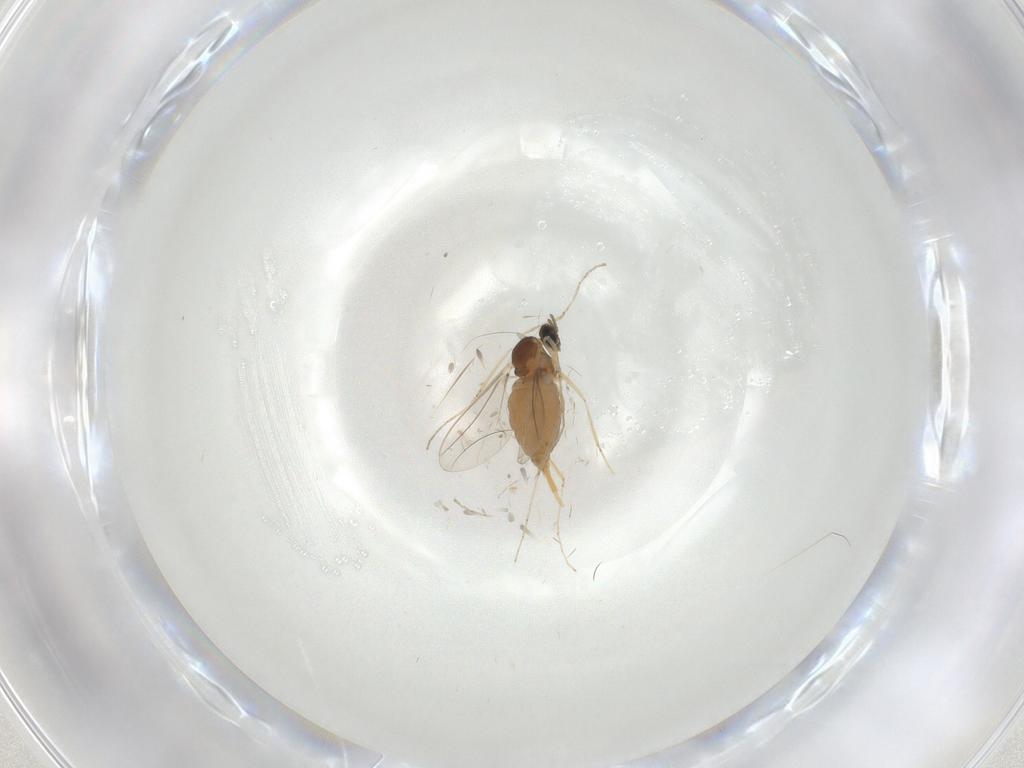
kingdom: Animalia
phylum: Arthropoda
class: Insecta
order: Diptera
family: Cecidomyiidae
